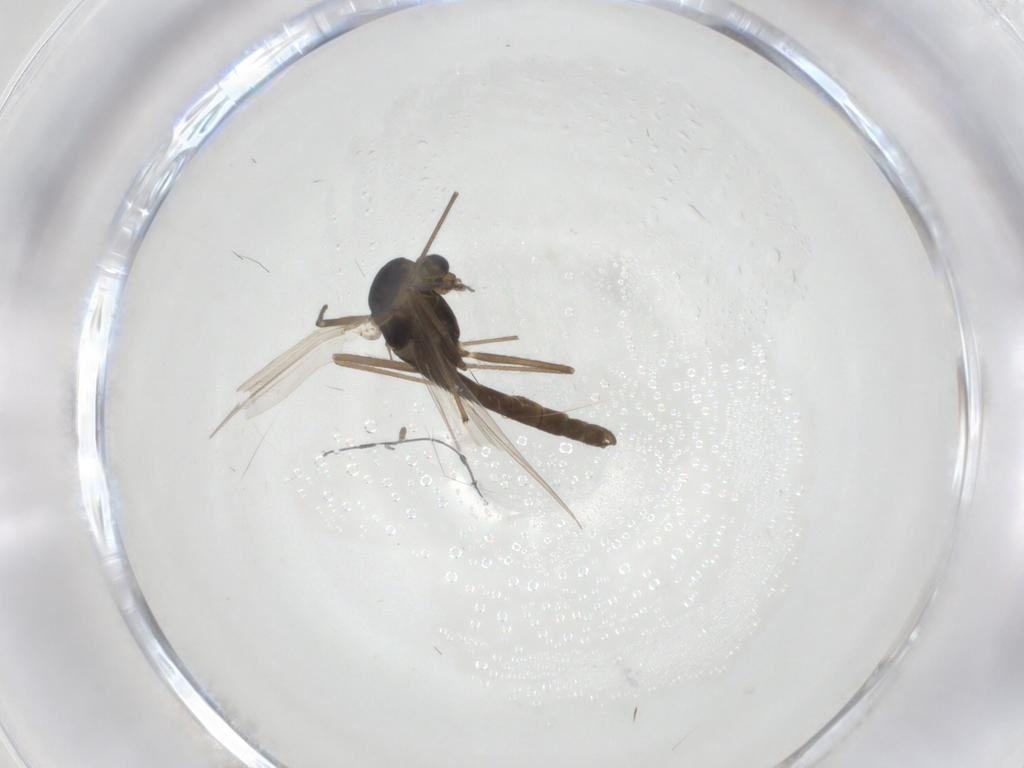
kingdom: Animalia
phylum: Arthropoda
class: Insecta
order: Diptera
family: Chironomidae
